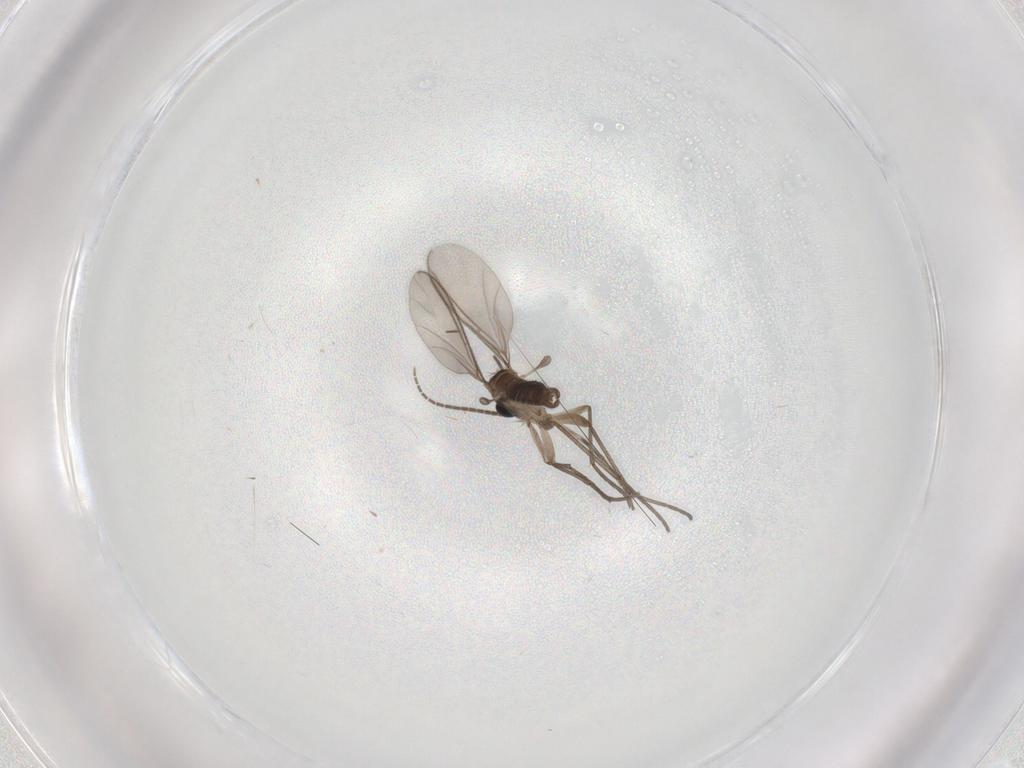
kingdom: Animalia
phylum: Arthropoda
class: Insecta
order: Diptera
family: Sciaridae
